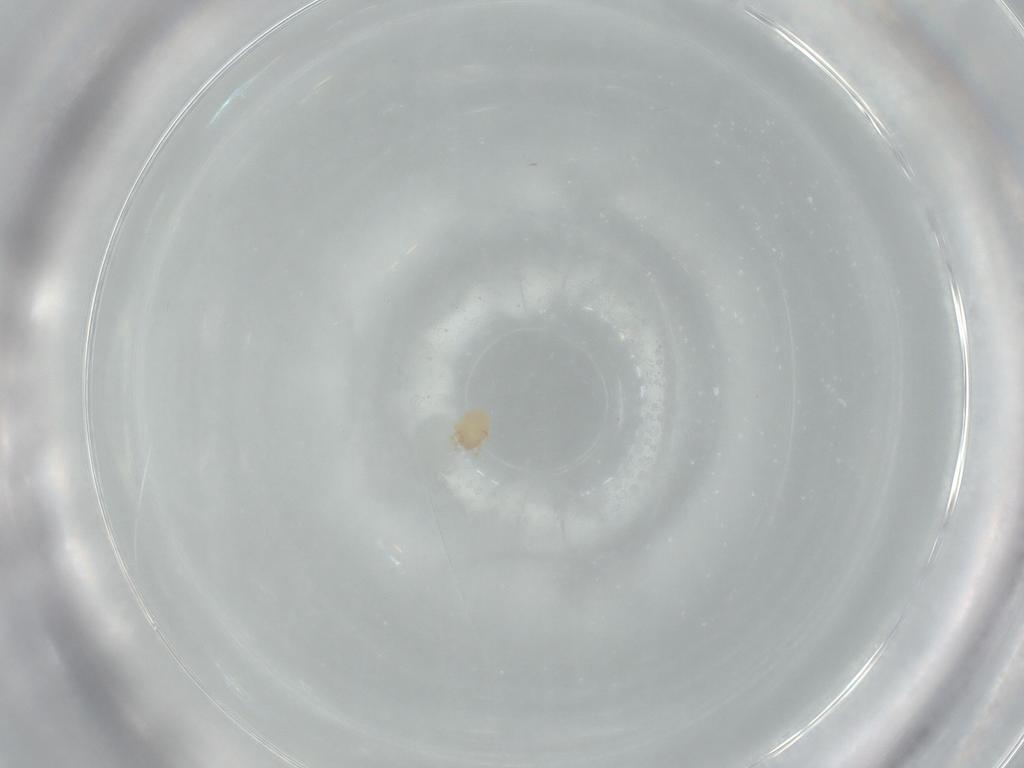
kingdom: Animalia
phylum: Arthropoda
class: Arachnida
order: Trombidiformes
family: Lebertiidae
